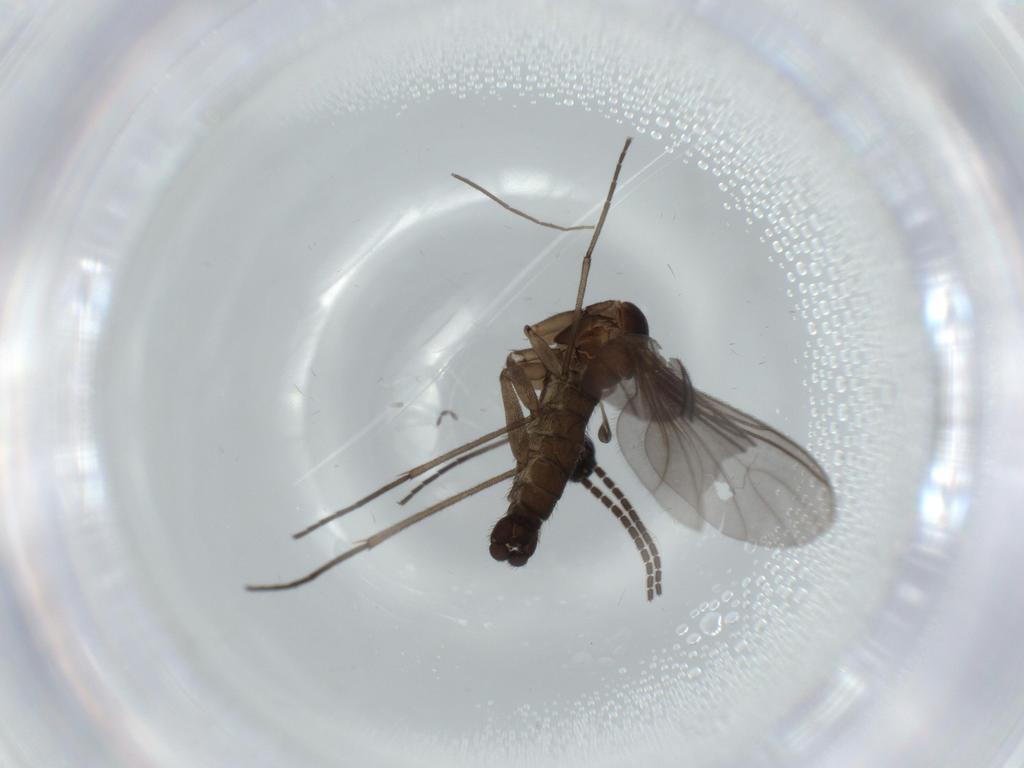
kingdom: Animalia
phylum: Arthropoda
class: Insecta
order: Diptera
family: Sciaridae
